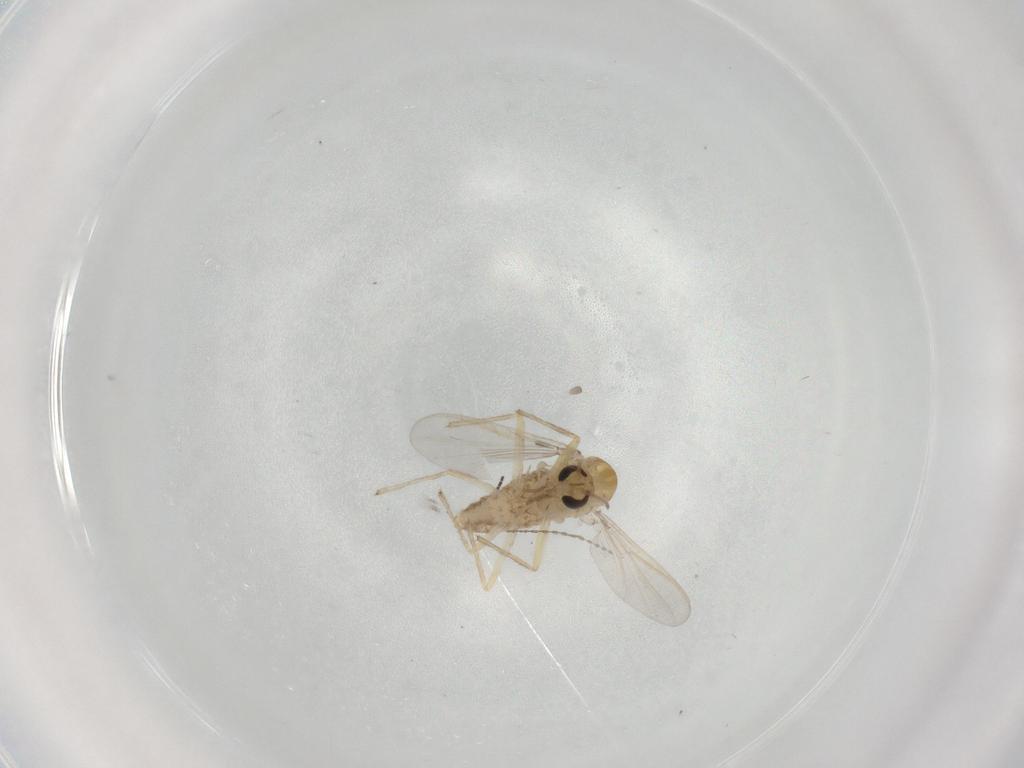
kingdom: Animalia
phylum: Arthropoda
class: Insecta
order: Diptera
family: Chironomidae
